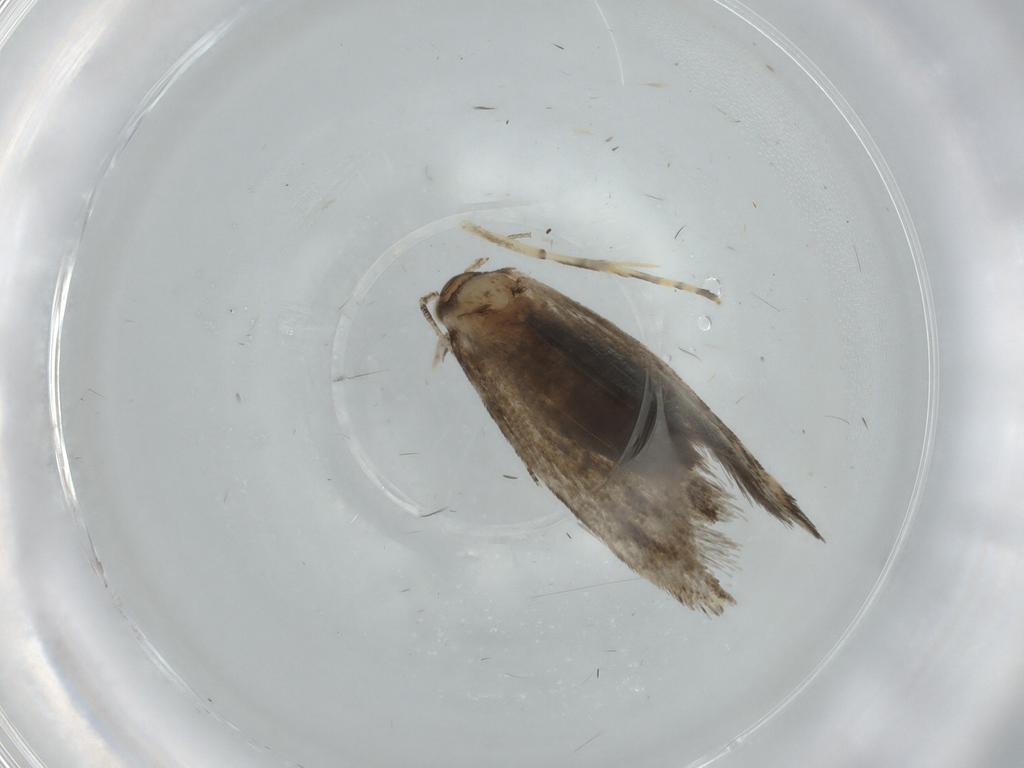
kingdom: Animalia
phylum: Arthropoda
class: Insecta
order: Lepidoptera
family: Tineidae
